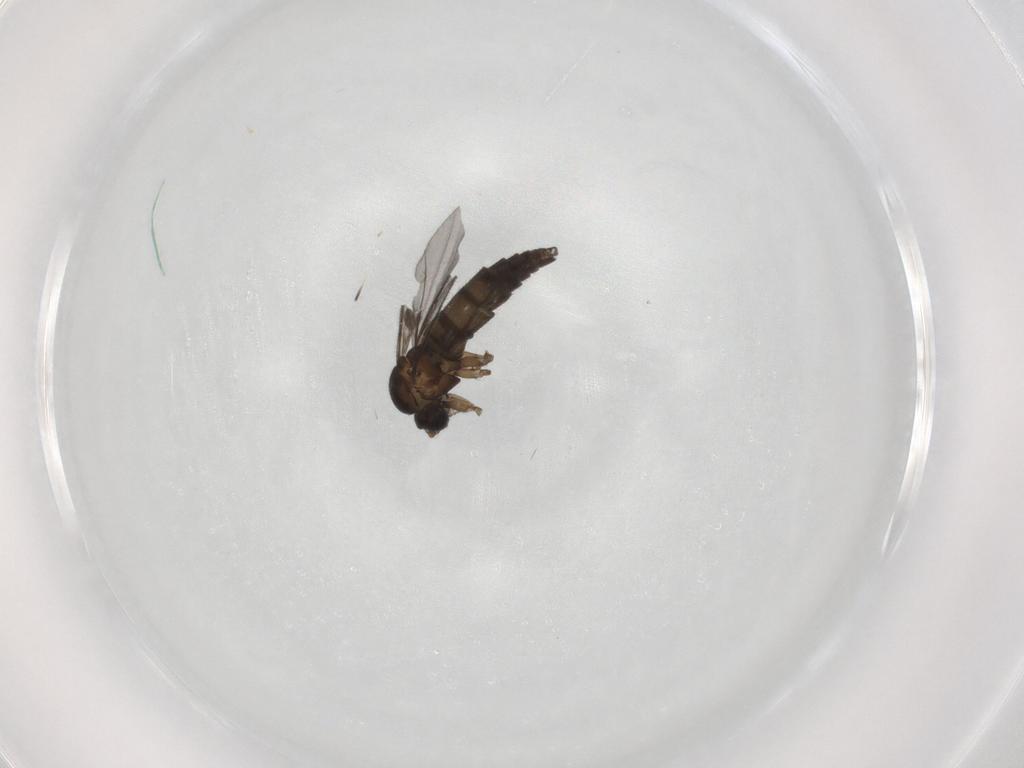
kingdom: Animalia
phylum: Arthropoda
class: Insecta
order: Diptera
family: Sciaridae
